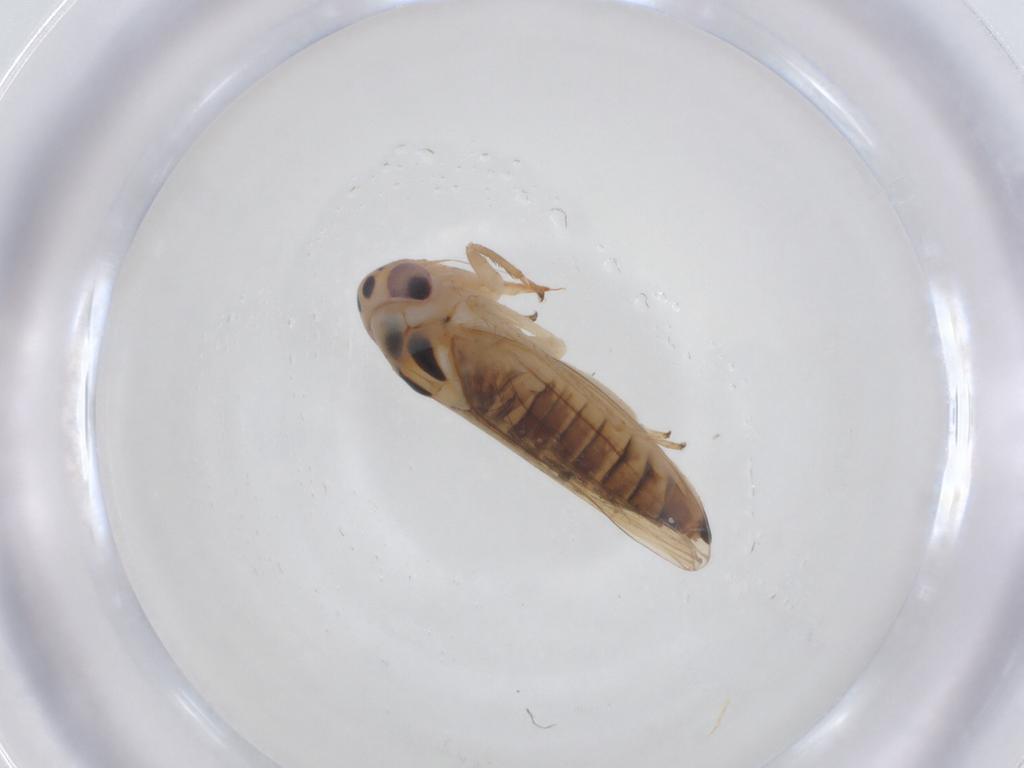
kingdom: Animalia
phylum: Arthropoda
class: Insecta
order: Hemiptera
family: Cicadellidae
